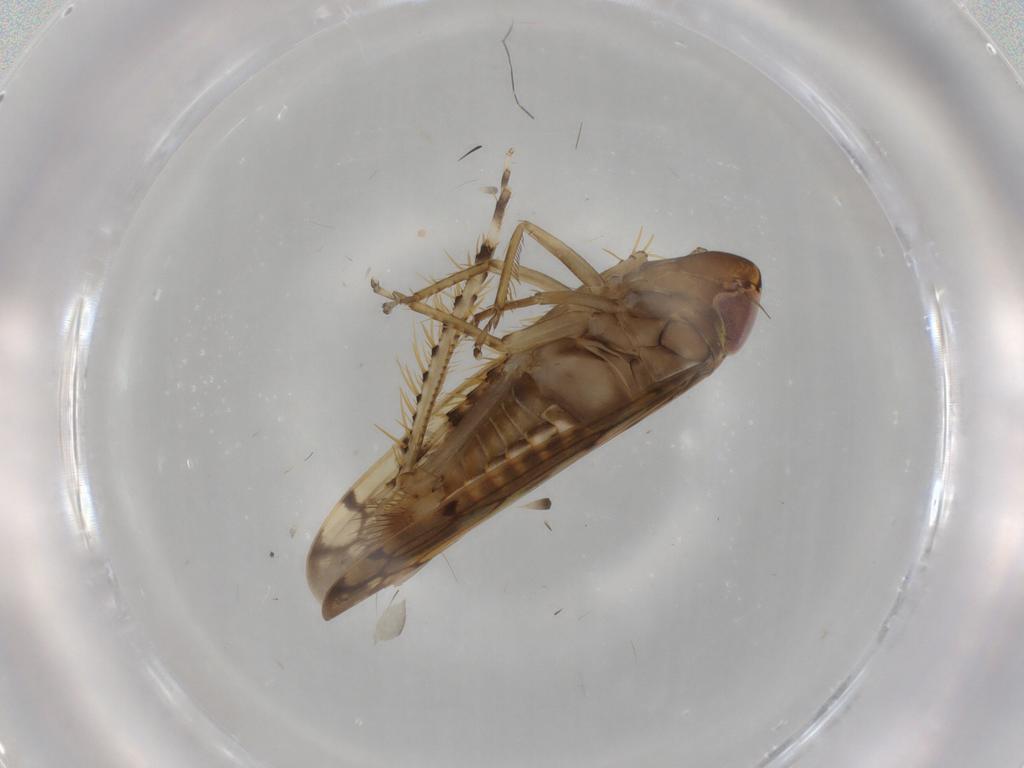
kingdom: Animalia
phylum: Arthropoda
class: Insecta
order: Hemiptera
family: Cicadellidae
